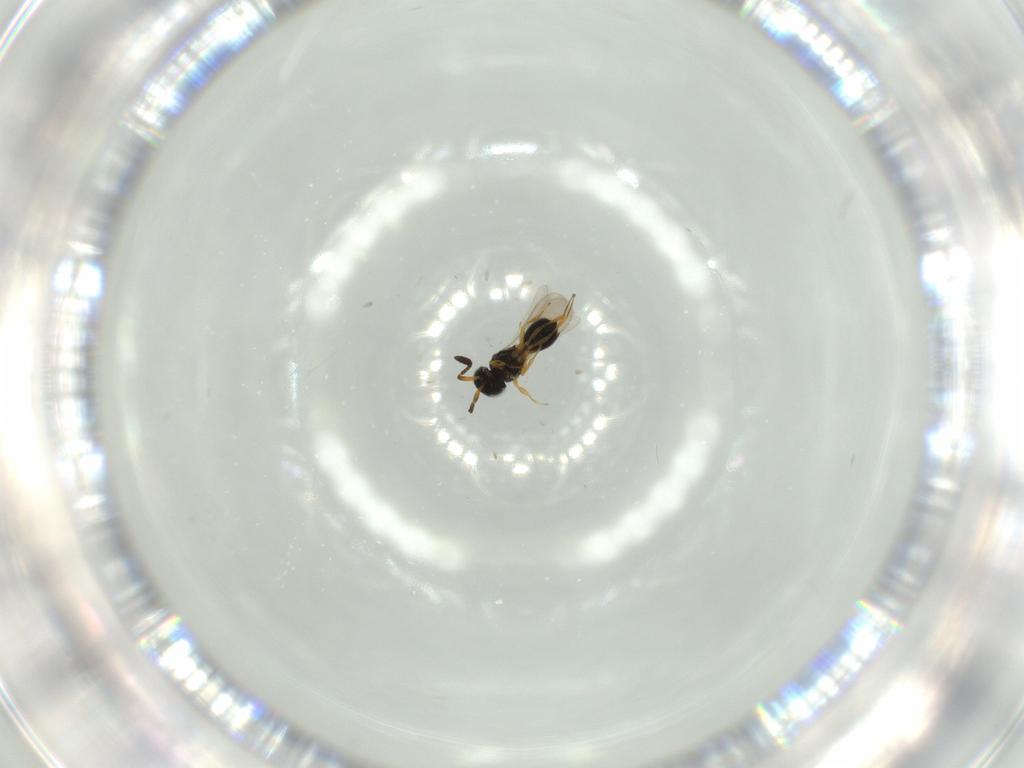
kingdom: Animalia
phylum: Arthropoda
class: Insecta
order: Hymenoptera
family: Scelionidae
